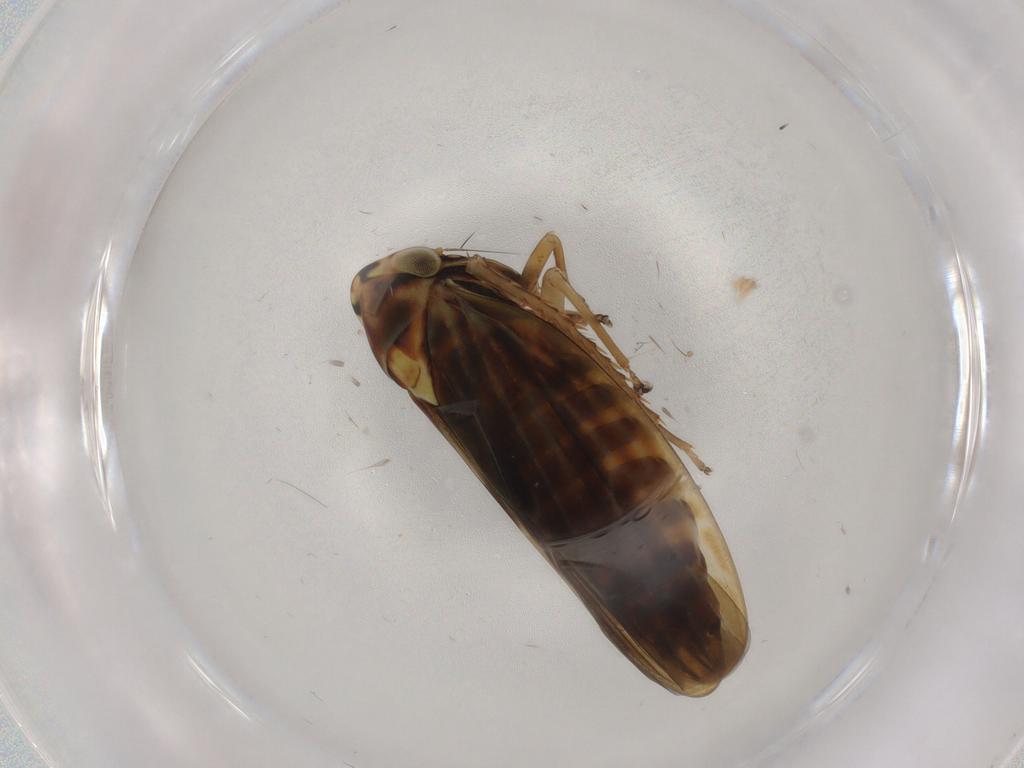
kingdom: Animalia
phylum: Arthropoda
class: Insecta
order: Hemiptera
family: Cicadellidae
